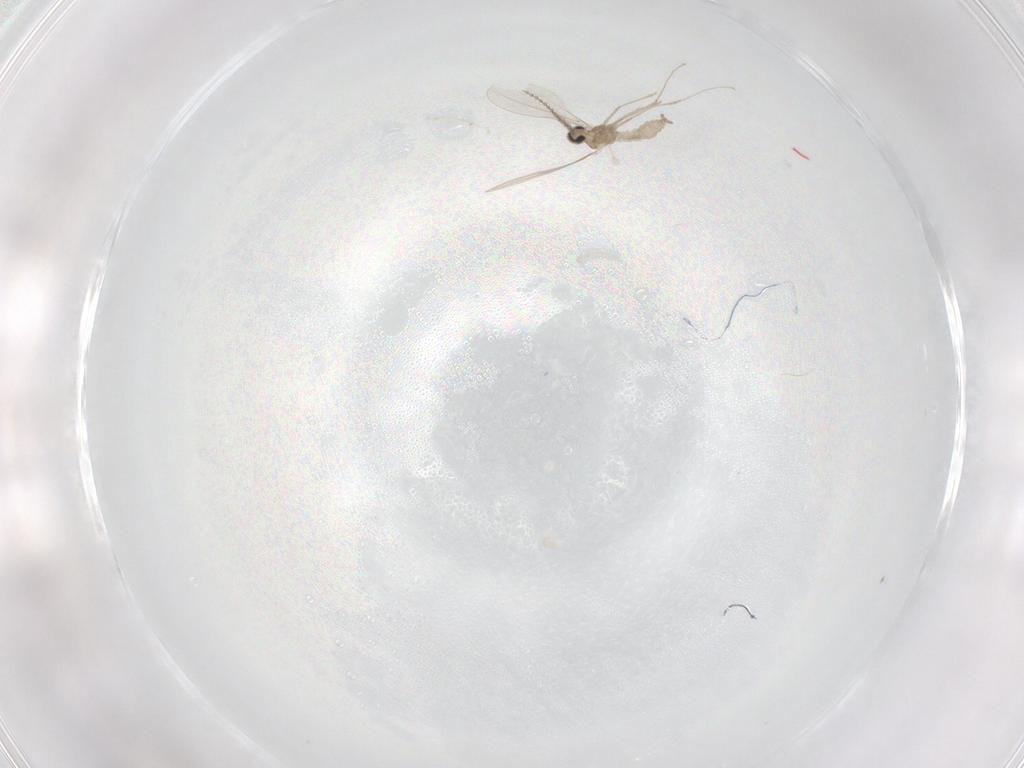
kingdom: Animalia
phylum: Arthropoda
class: Insecta
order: Diptera
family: Cecidomyiidae
